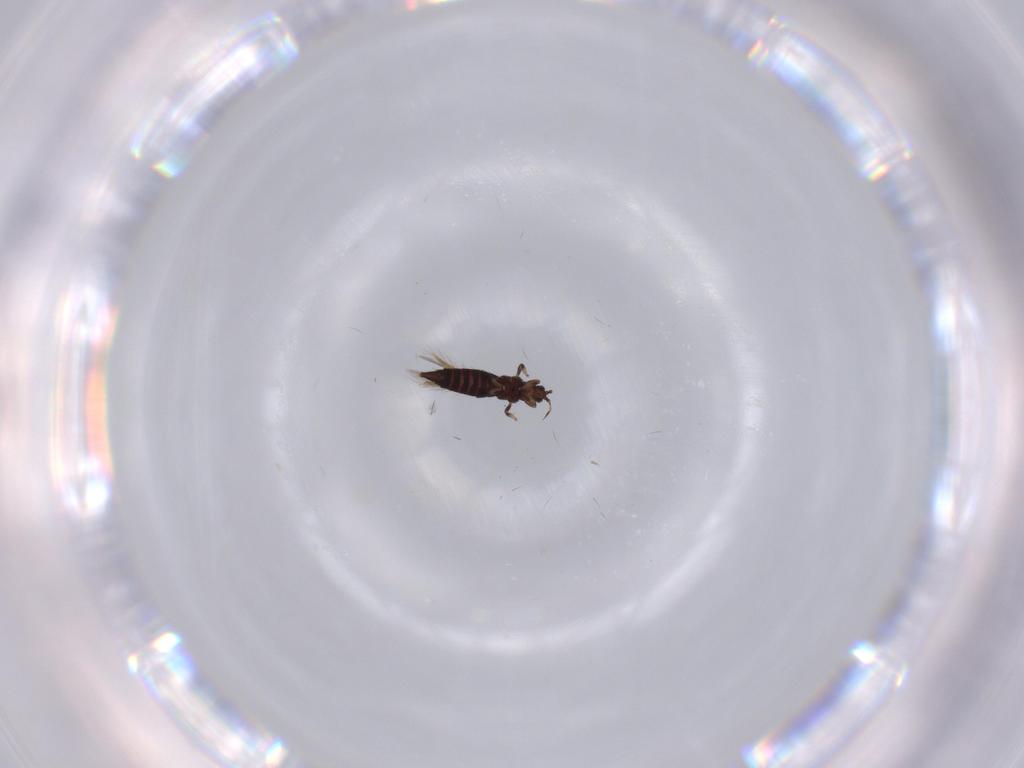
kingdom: Animalia
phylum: Arthropoda
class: Insecta
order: Thysanoptera
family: Thripidae
